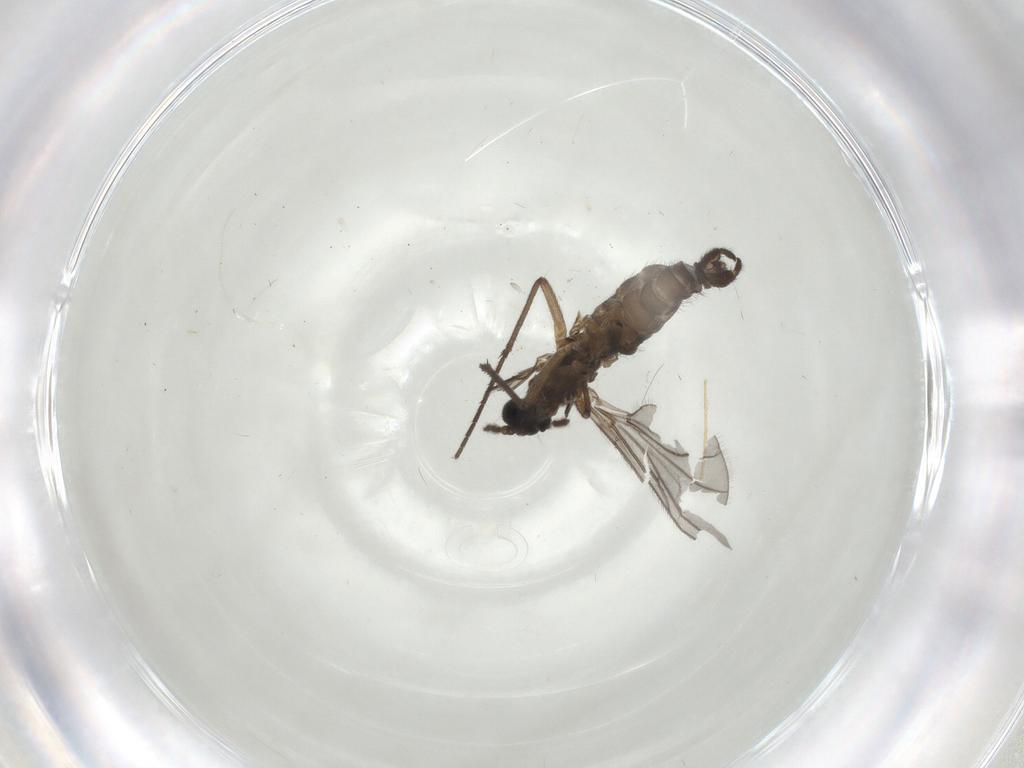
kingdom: Animalia
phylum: Arthropoda
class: Insecta
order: Diptera
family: Sciaridae
